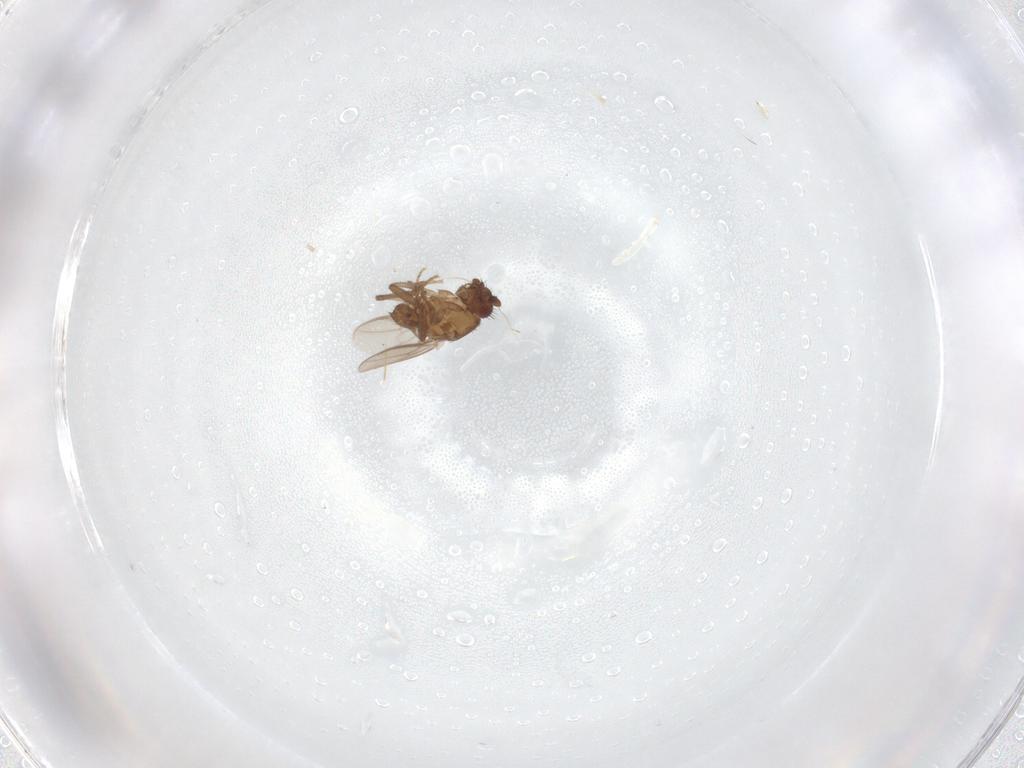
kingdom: Animalia
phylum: Arthropoda
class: Insecta
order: Diptera
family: Sphaeroceridae
